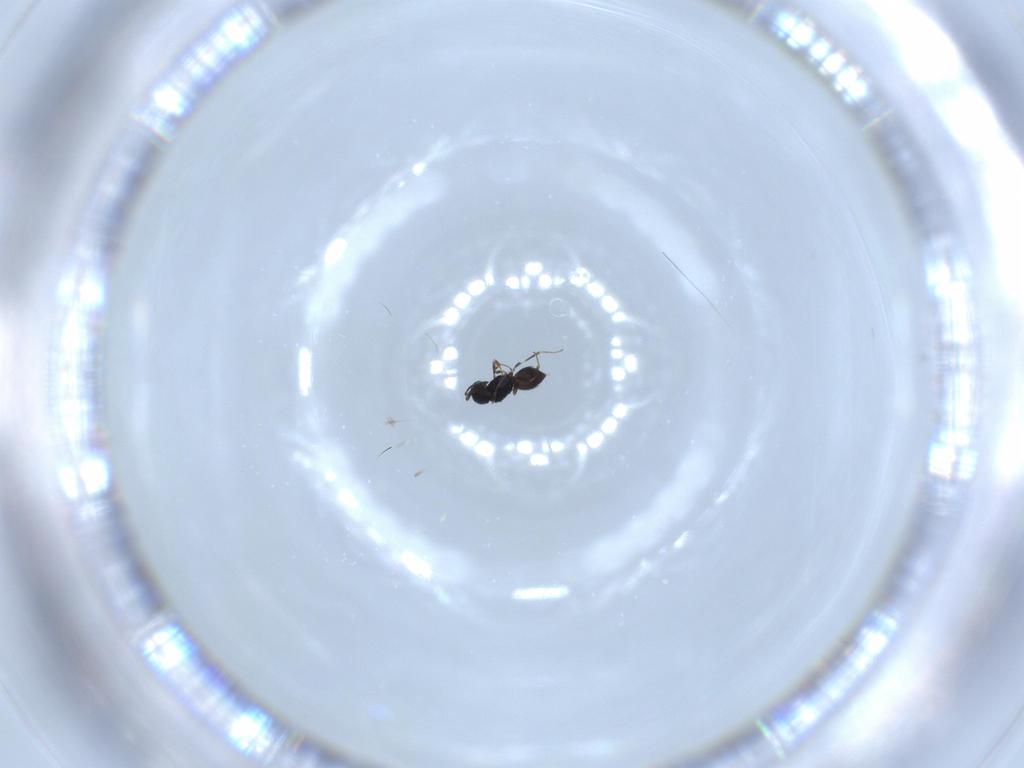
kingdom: Animalia
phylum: Arthropoda
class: Insecta
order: Hymenoptera
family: Scelionidae
